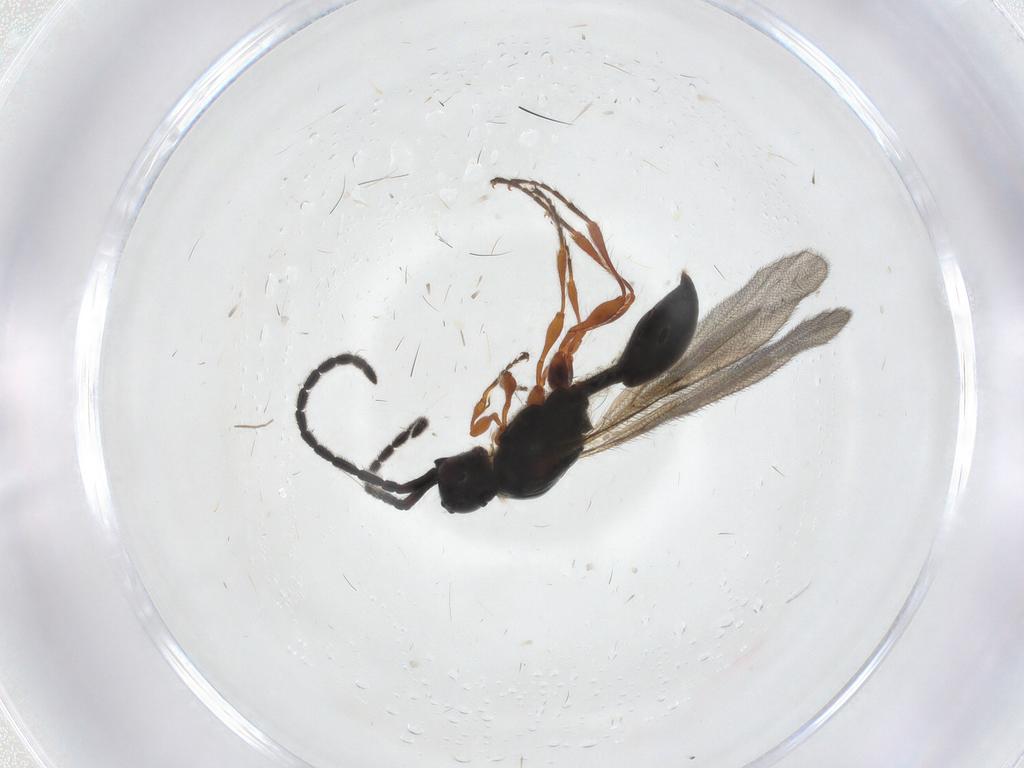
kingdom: Animalia
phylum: Arthropoda
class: Insecta
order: Hymenoptera
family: Diapriidae
